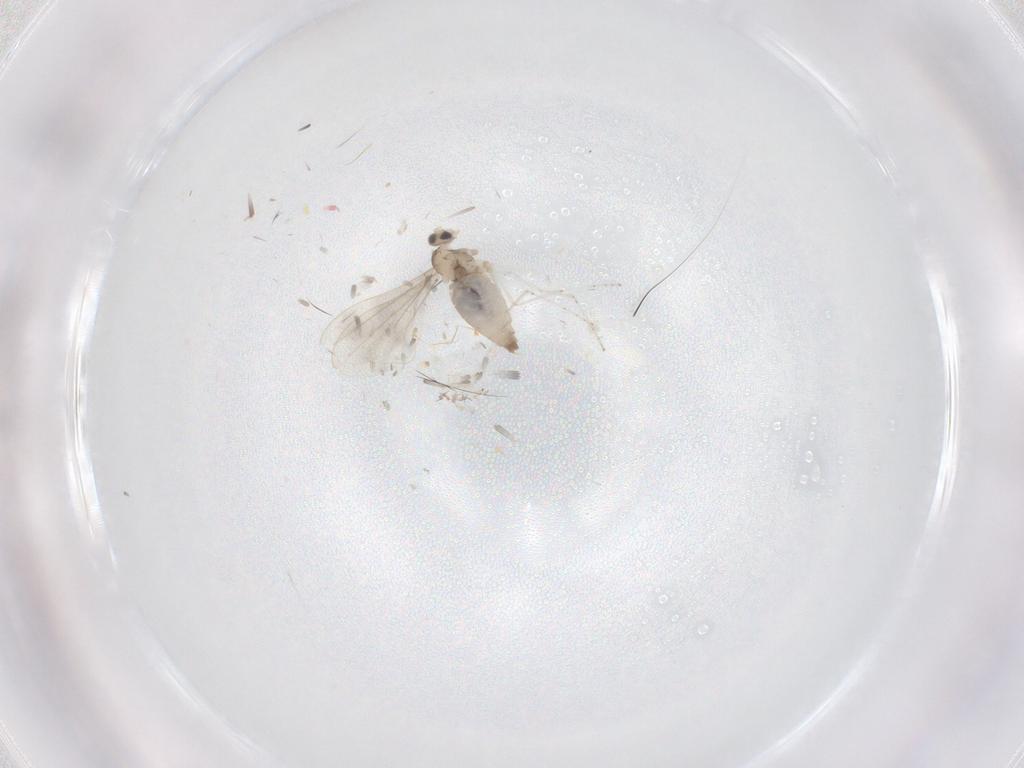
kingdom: Animalia
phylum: Arthropoda
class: Insecta
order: Diptera
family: Cecidomyiidae
